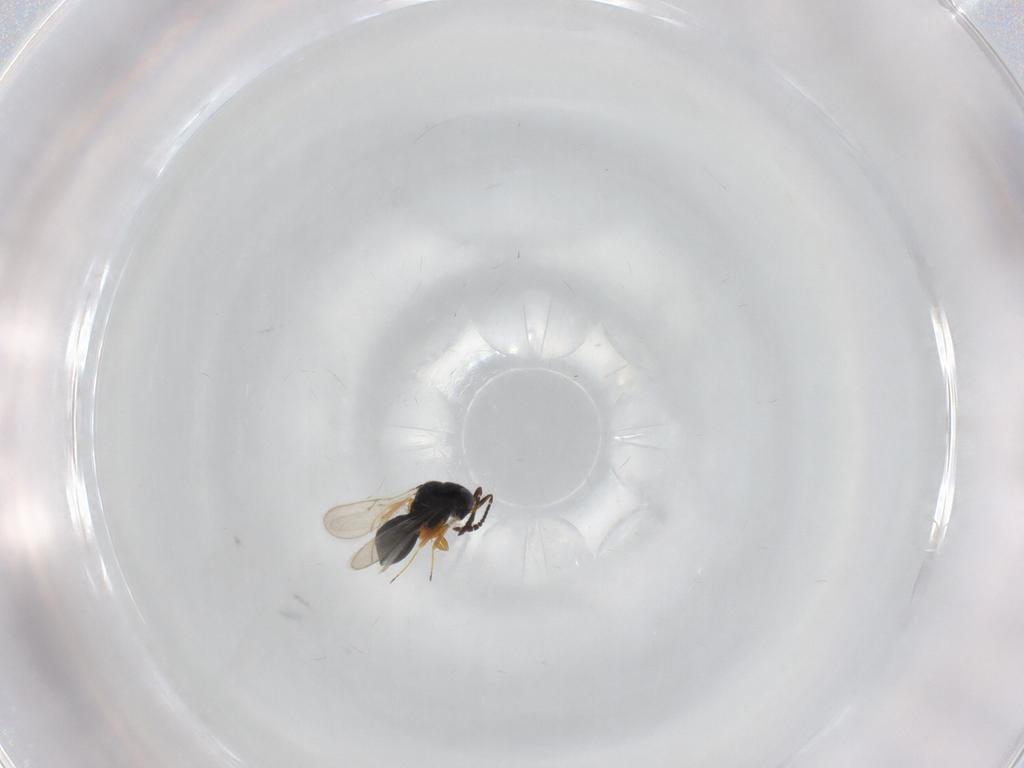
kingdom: Animalia
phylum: Arthropoda
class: Insecta
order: Hymenoptera
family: Scelionidae
